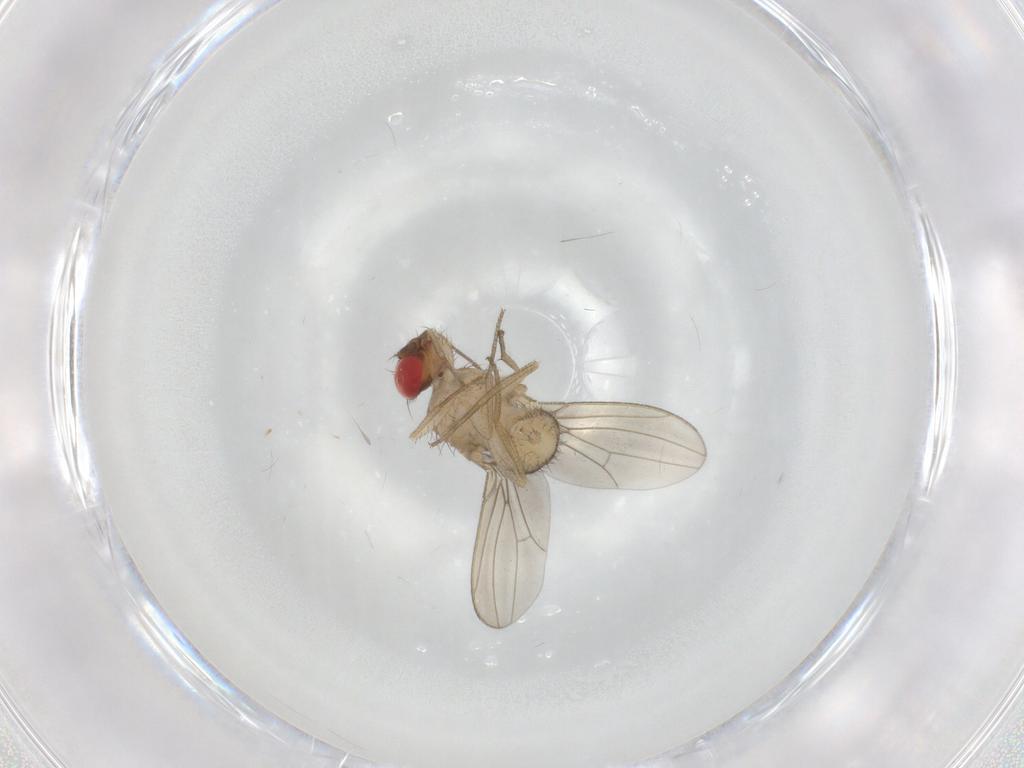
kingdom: Animalia
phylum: Arthropoda
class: Insecta
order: Diptera
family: Drosophilidae
